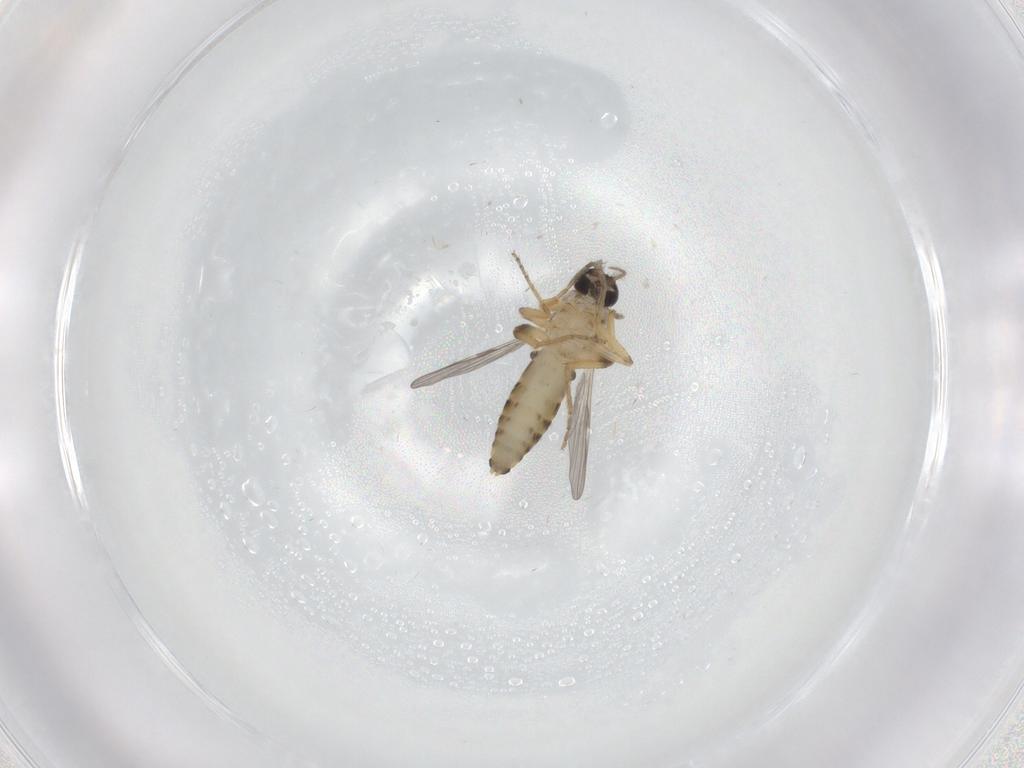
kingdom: Animalia
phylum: Arthropoda
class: Insecta
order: Diptera
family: Ceratopogonidae
